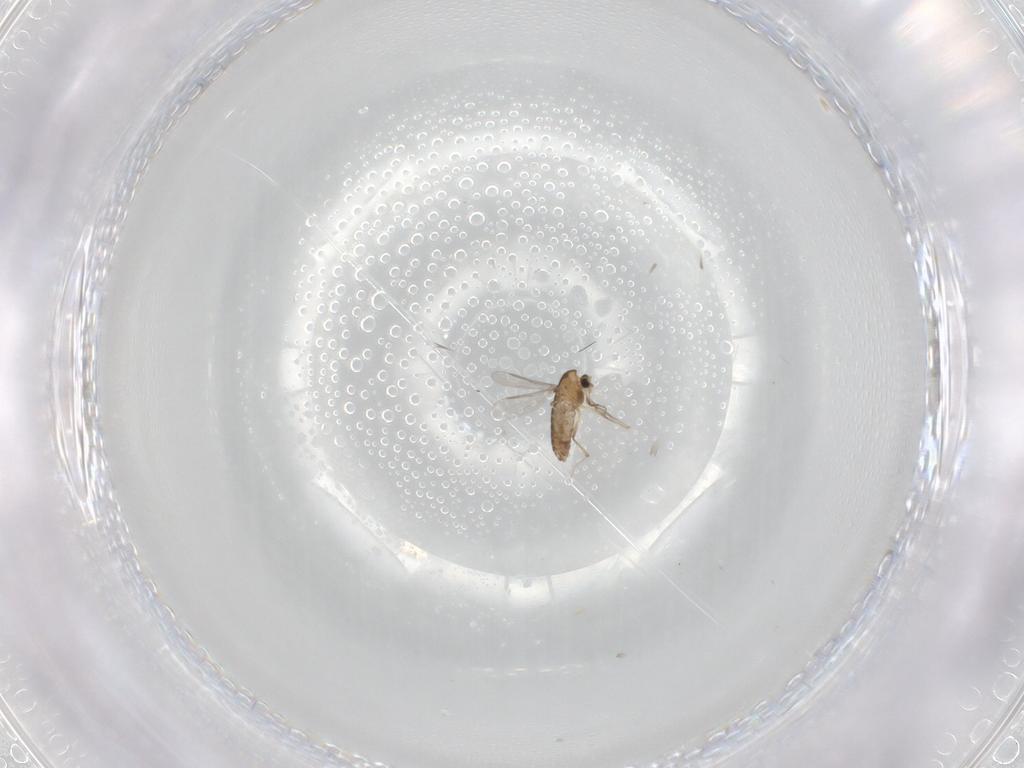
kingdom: Animalia
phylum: Arthropoda
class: Insecta
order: Diptera
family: Chironomidae
